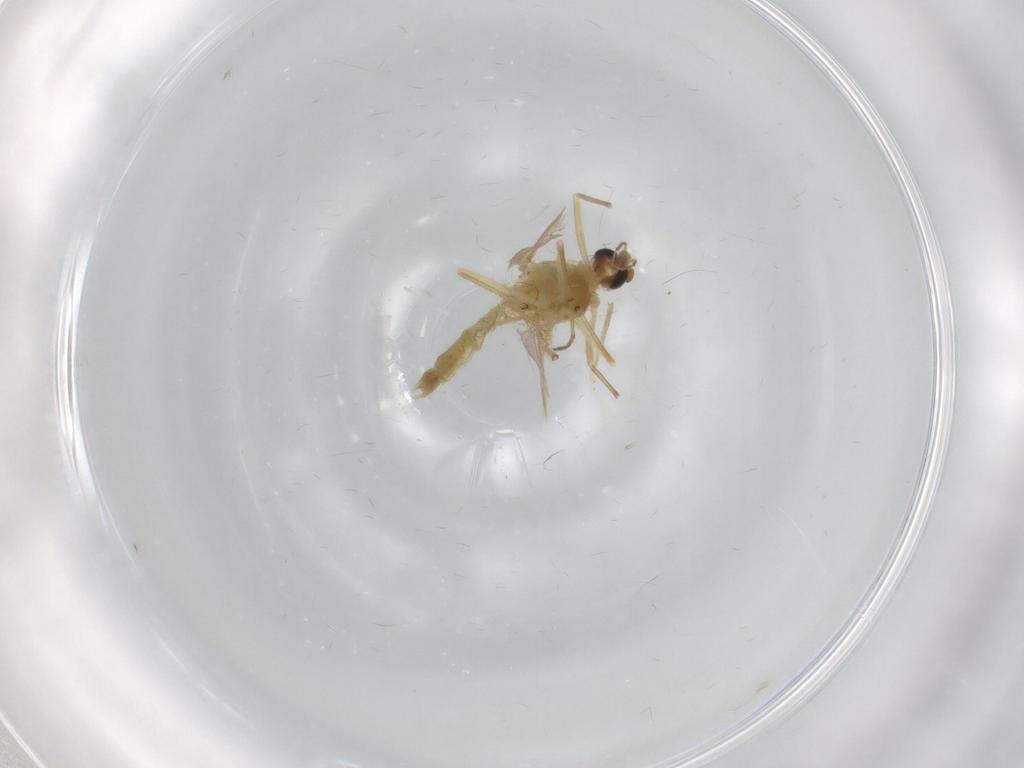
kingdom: Animalia
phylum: Arthropoda
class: Insecta
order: Diptera
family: Chironomidae
